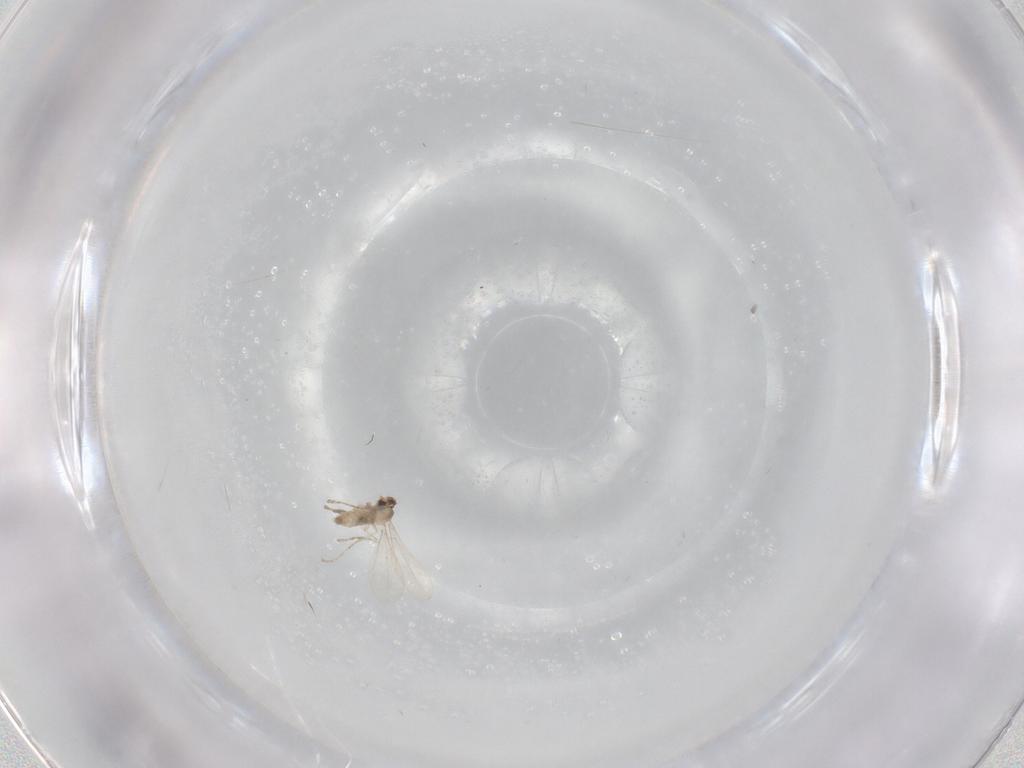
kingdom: Animalia
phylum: Arthropoda
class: Insecta
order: Diptera
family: Cecidomyiidae
